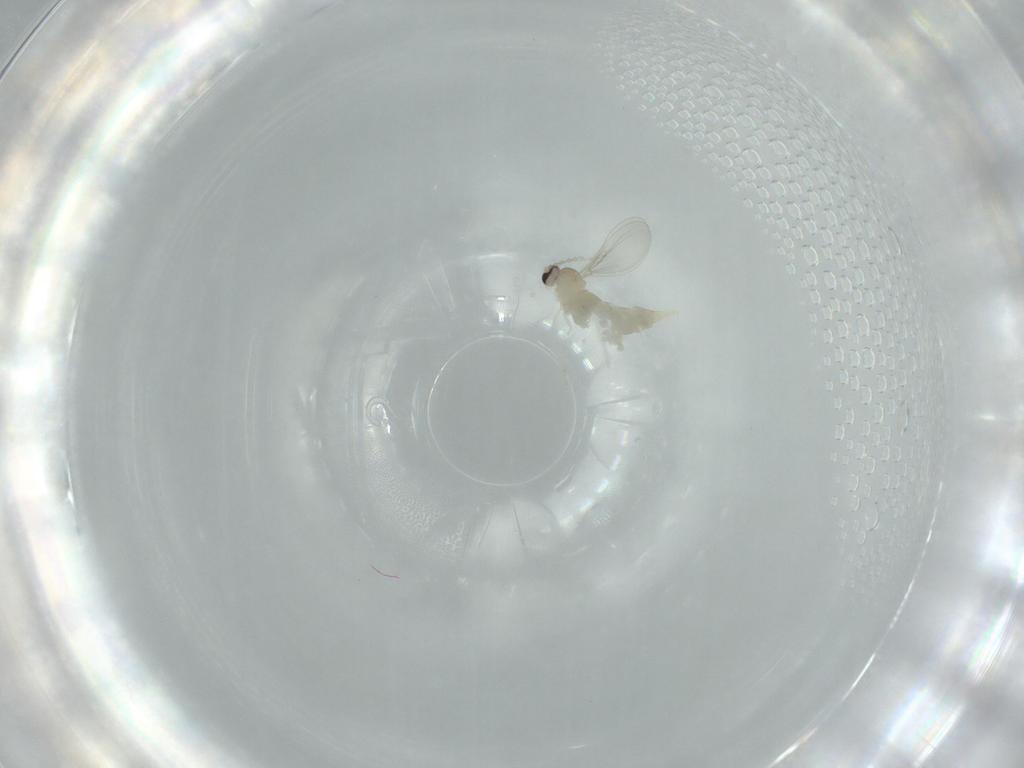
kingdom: Animalia
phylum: Arthropoda
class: Insecta
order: Diptera
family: Cecidomyiidae
